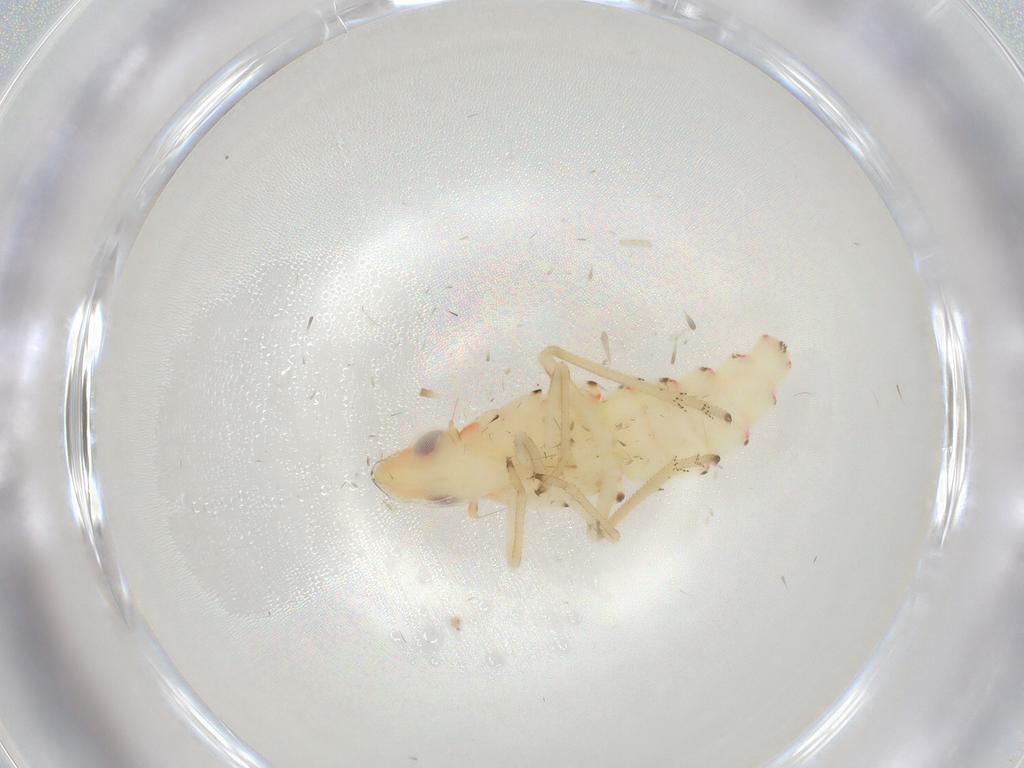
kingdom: Animalia
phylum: Arthropoda
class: Insecta
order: Hemiptera
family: Tropiduchidae
